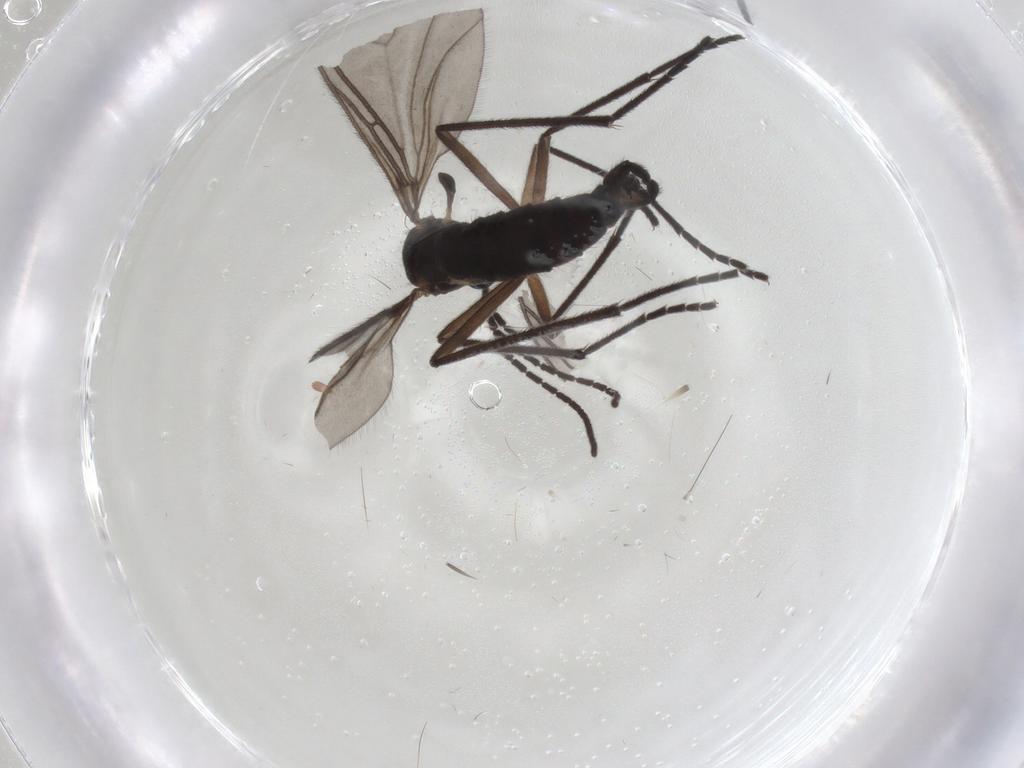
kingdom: Animalia
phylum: Arthropoda
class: Insecta
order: Diptera
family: Sciaridae
